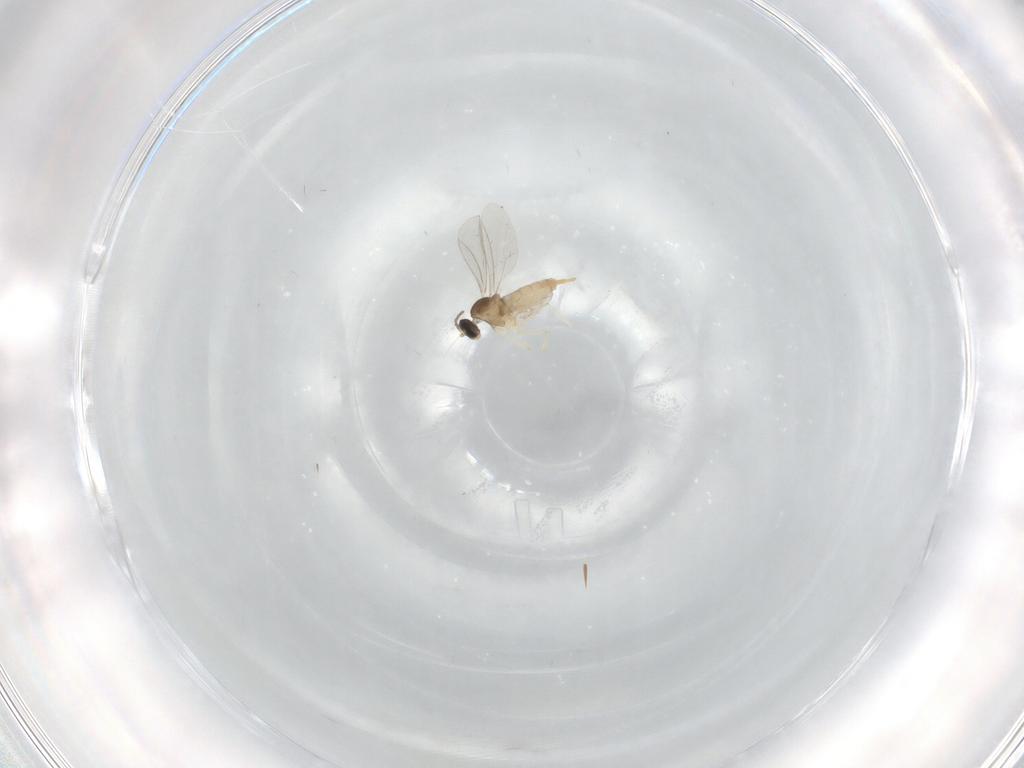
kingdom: Animalia
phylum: Arthropoda
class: Insecta
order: Diptera
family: Cecidomyiidae
